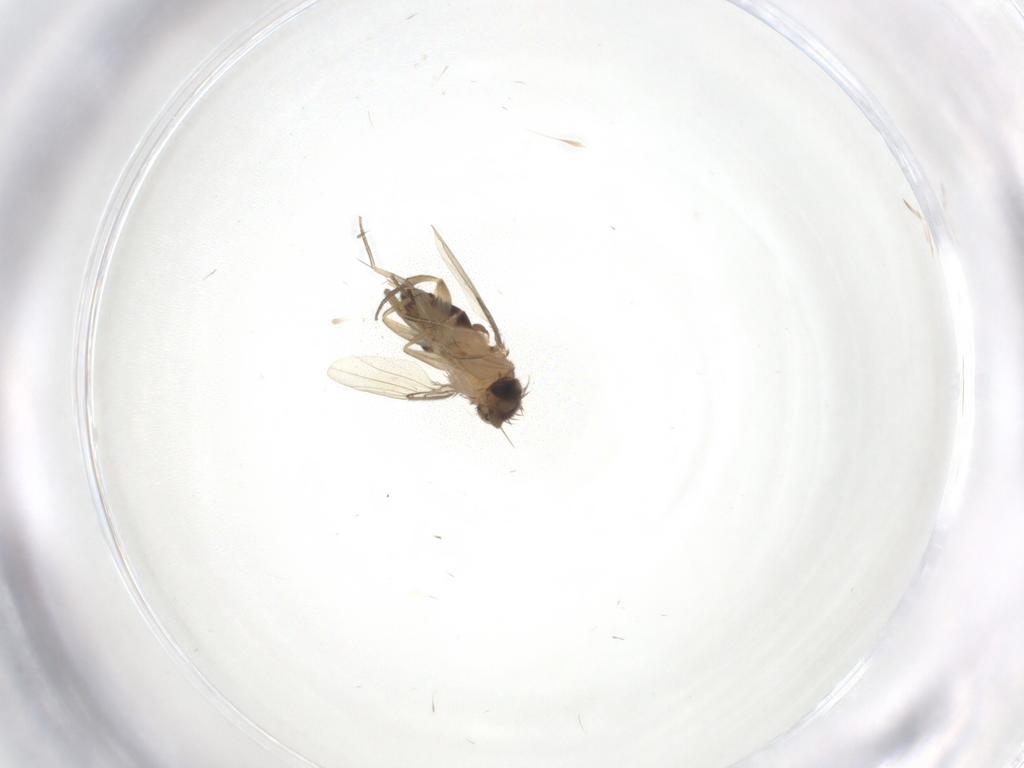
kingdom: Animalia
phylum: Arthropoda
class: Insecta
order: Diptera
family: Phoridae
